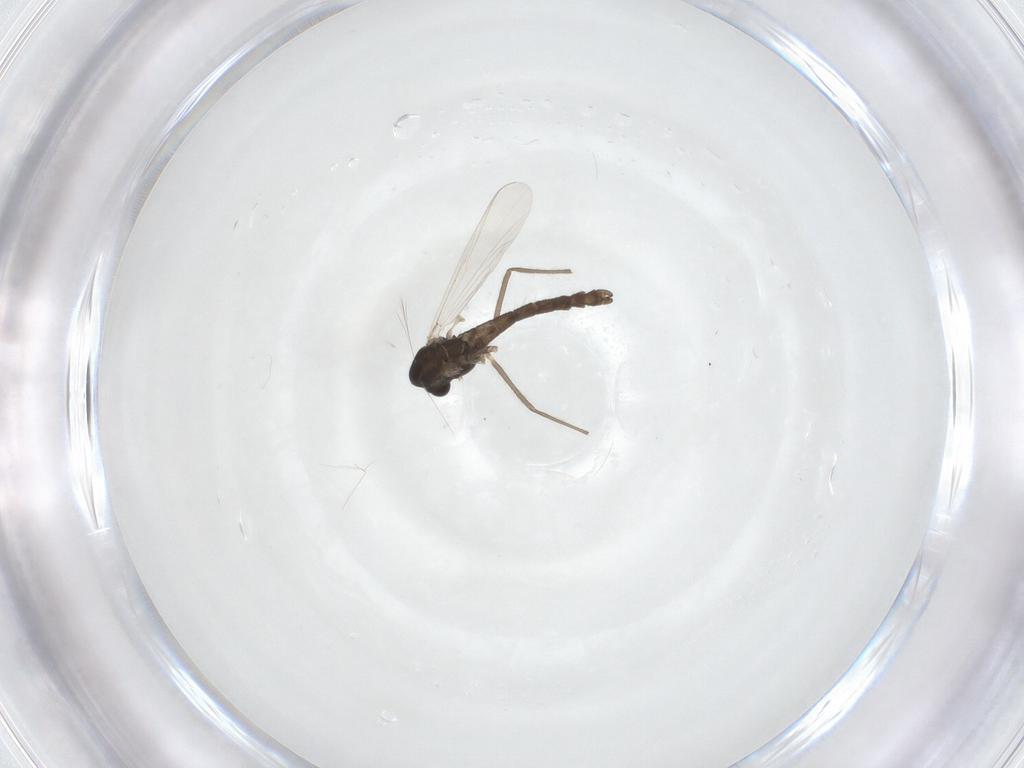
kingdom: Animalia
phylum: Arthropoda
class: Insecta
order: Diptera
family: Chironomidae
